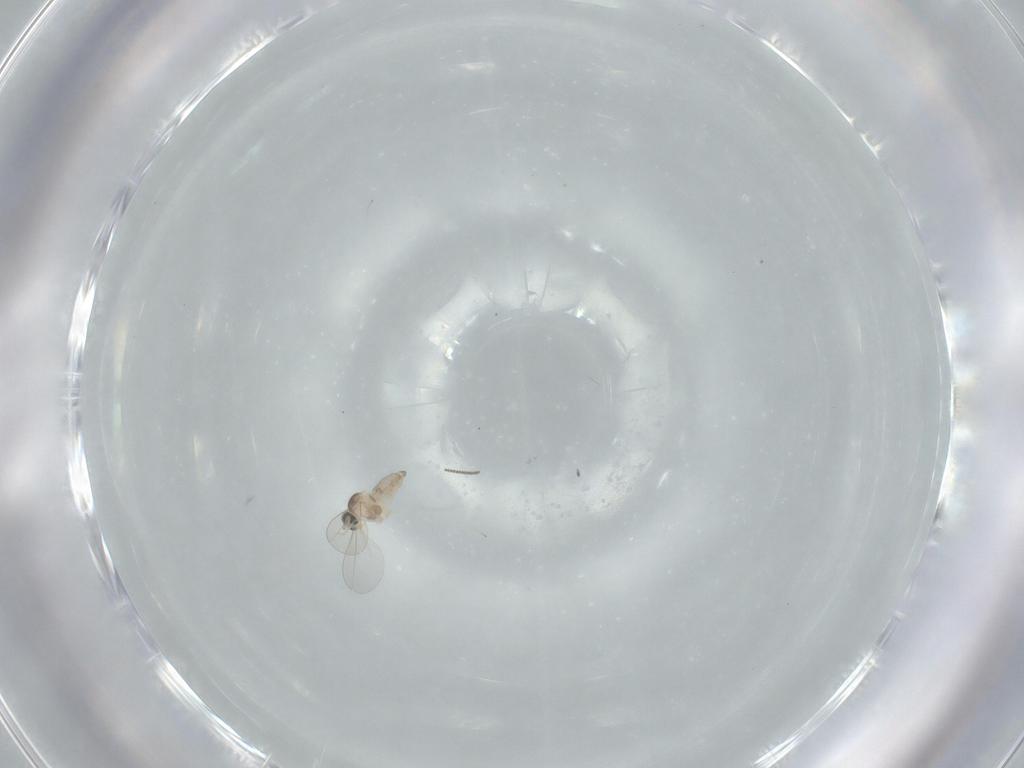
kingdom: Animalia
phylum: Arthropoda
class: Insecta
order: Diptera
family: Cecidomyiidae
